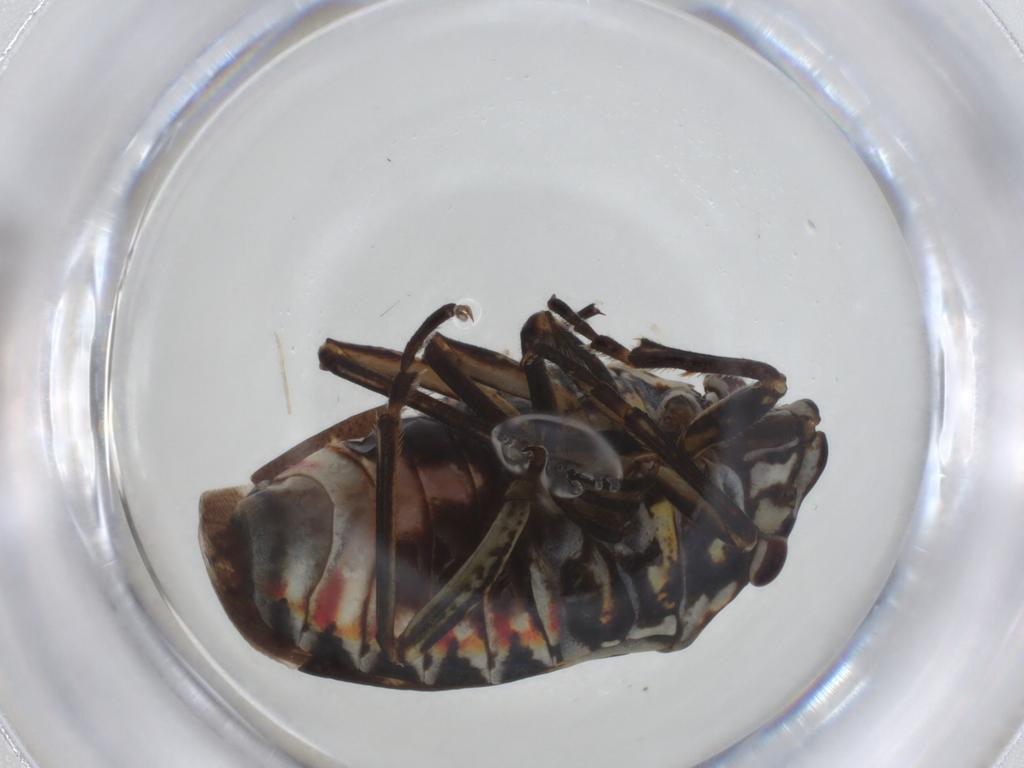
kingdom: Animalia
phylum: Arthropoda
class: Insecta
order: Hemiptera
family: Pentatomidae
